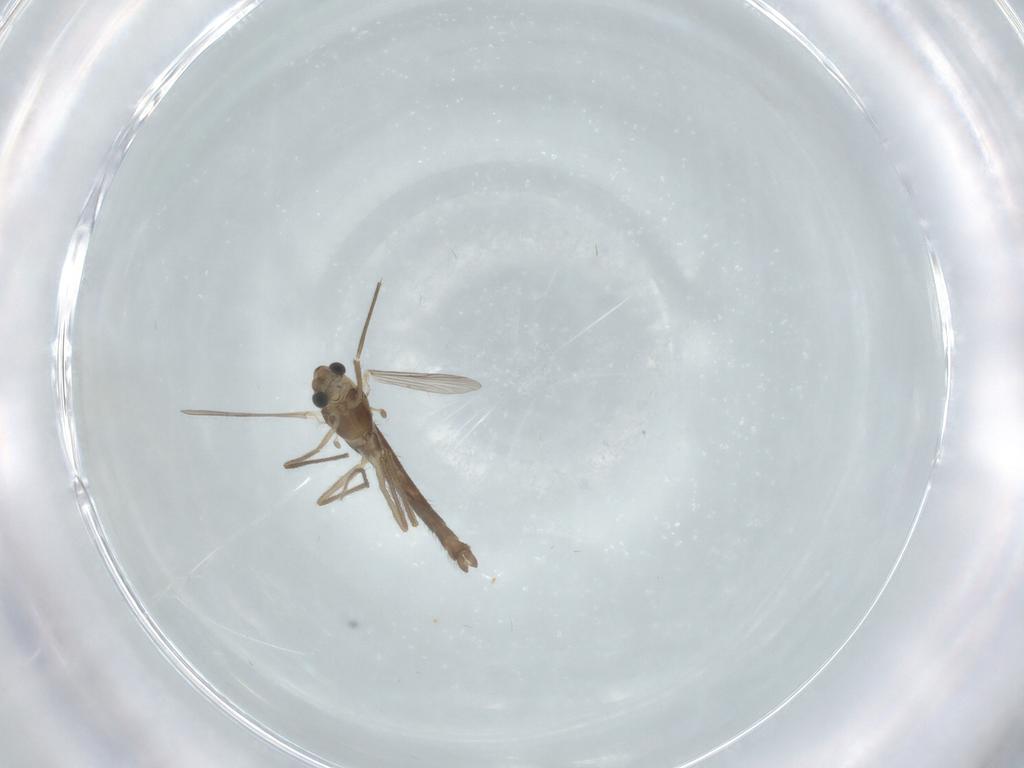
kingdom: Animalia
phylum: Arthropoda
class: Insecta
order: Diptera
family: Chironomidae
